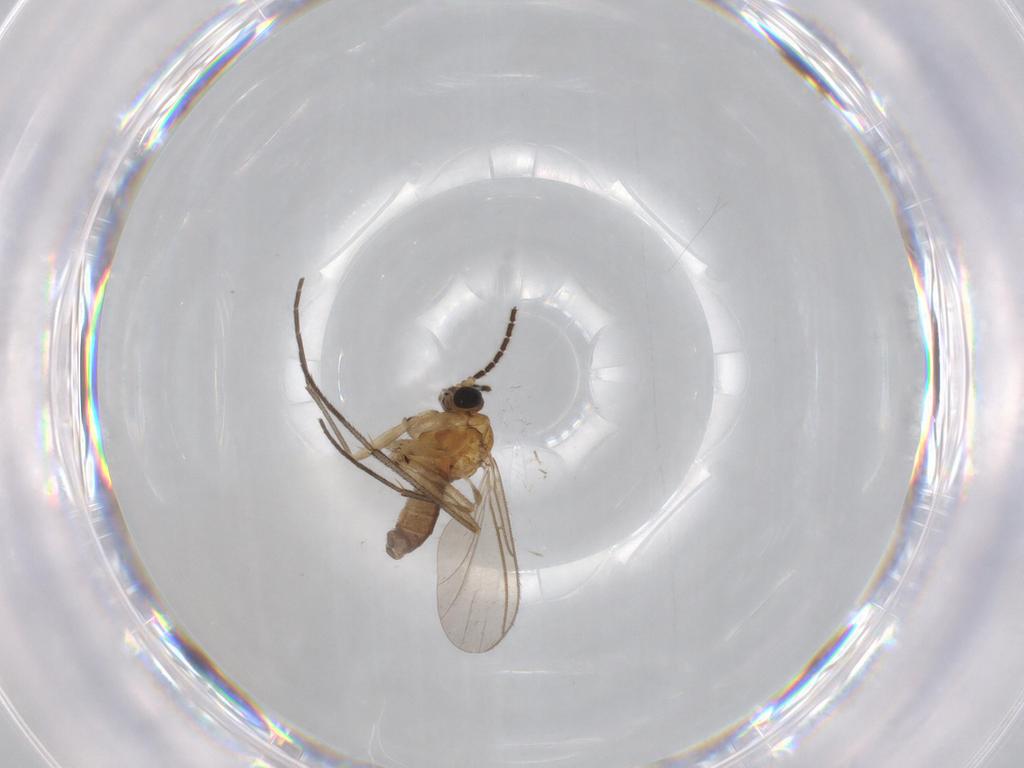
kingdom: Animalia
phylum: Arthropoda
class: Insecta
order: Diptera
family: Sciaridae
